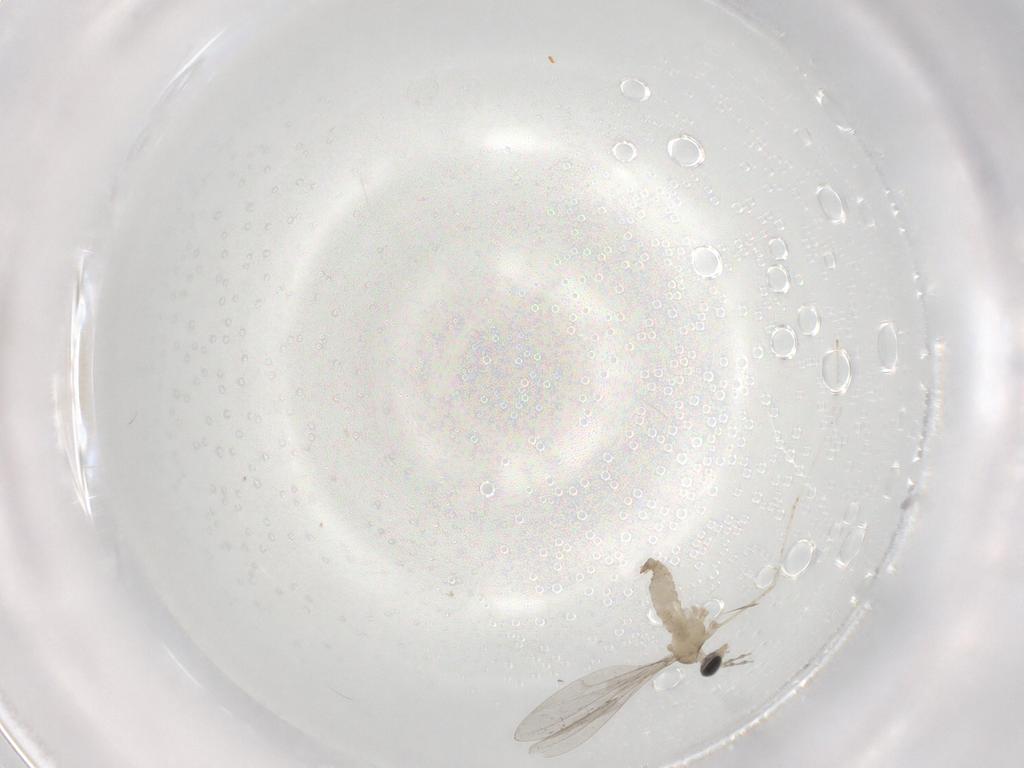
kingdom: Animalia
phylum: Arthropoda
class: Insecta
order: Diptera
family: Cecidomyiidae
